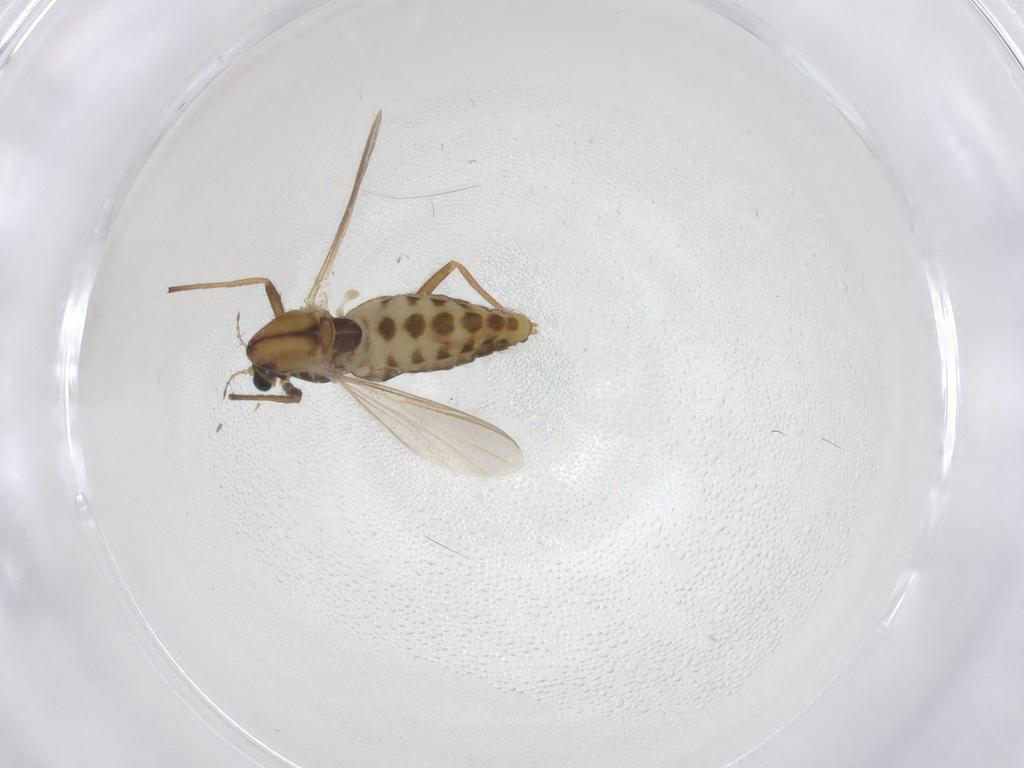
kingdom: Animalia
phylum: Arthropoda
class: Insecta
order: Diptera
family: Chironomidae
